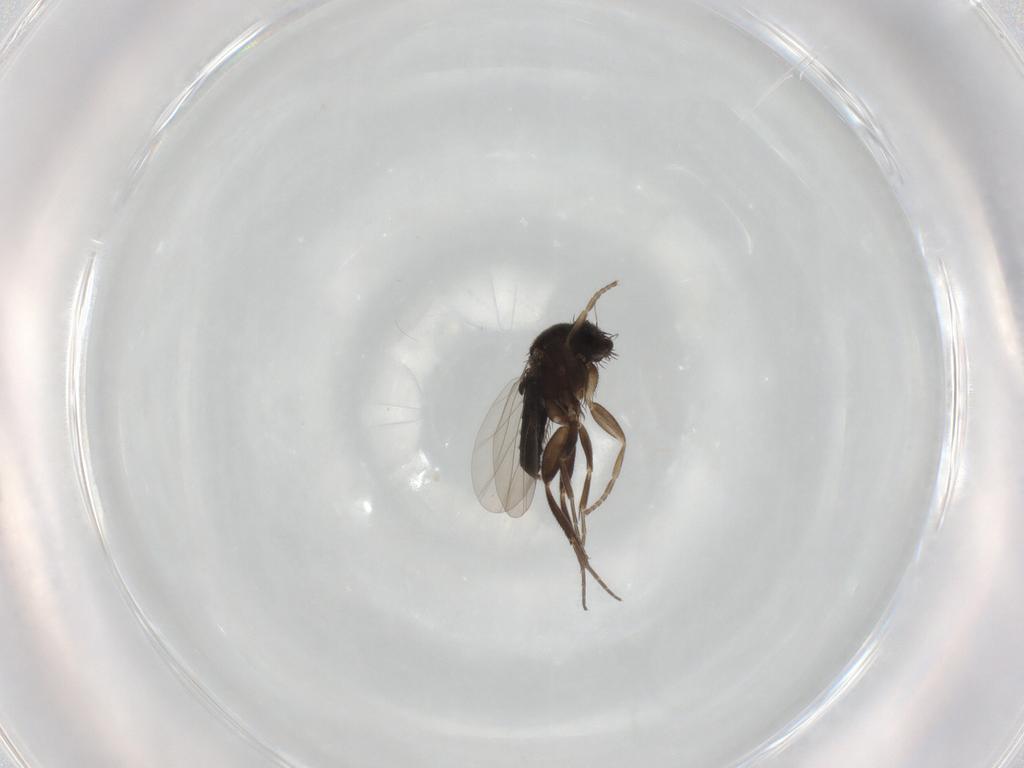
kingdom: Animalia
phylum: Arthropoda
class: Insecta
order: Diptera
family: Phoridae
